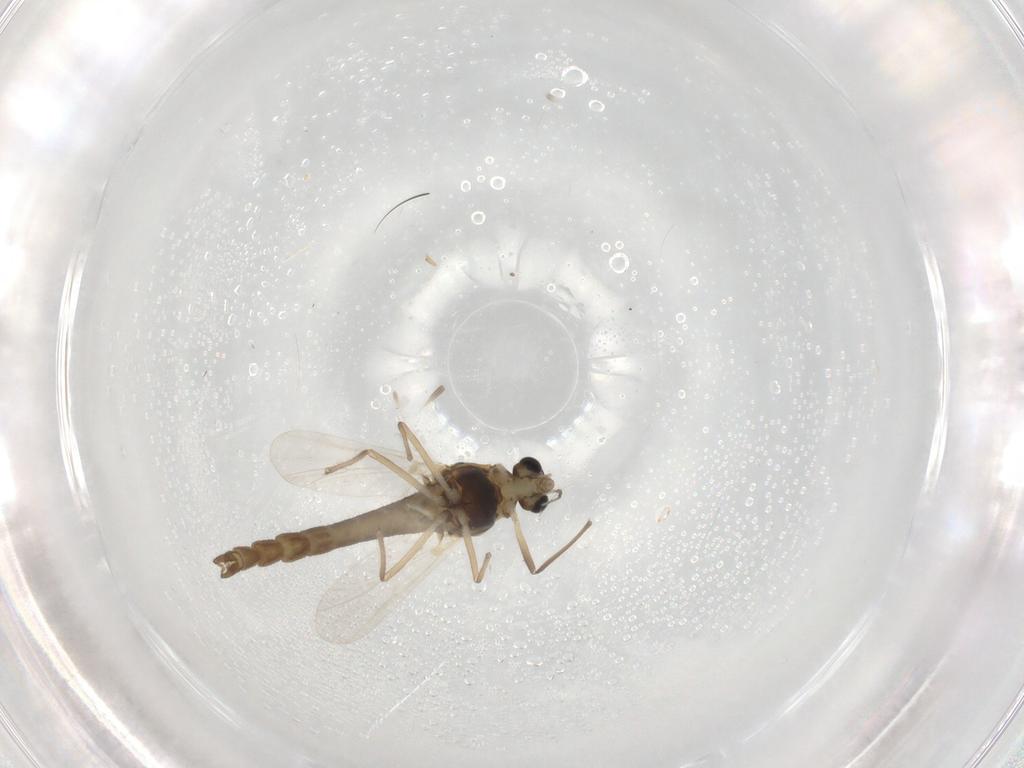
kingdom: Animalia
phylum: Arthropoda
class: Insecta
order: Diptera
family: Chironomidae
